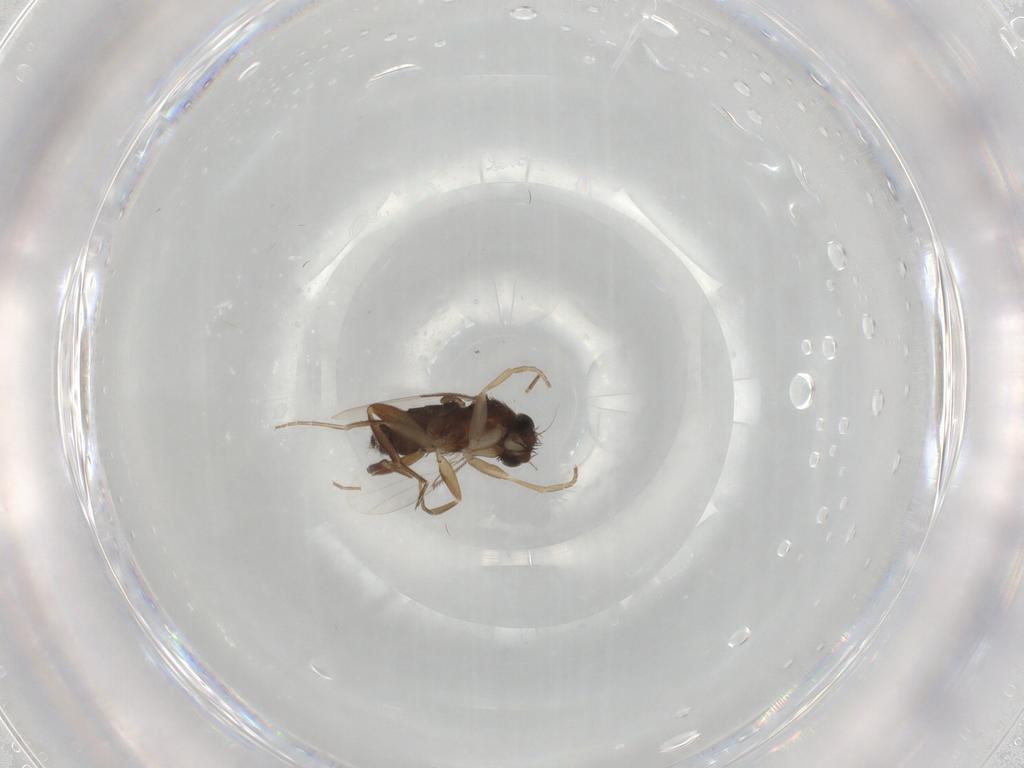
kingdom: Animalia
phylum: Arthropoda
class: Insecta
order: Diptera
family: Phoridae
